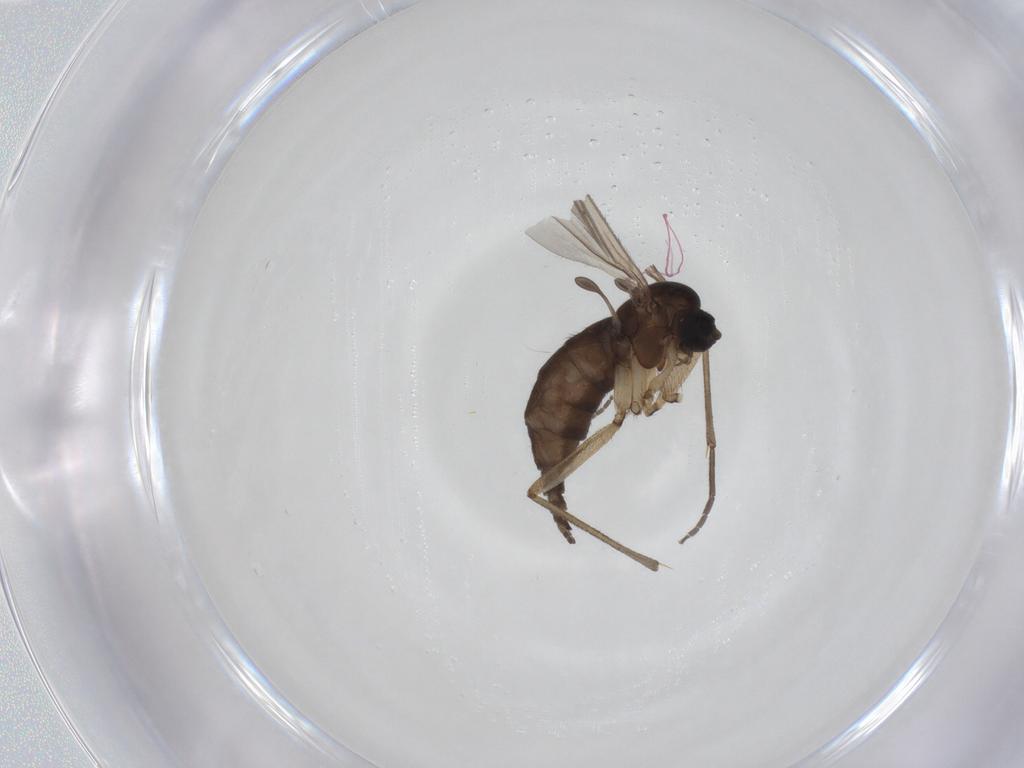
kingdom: Animalia
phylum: Arthropoda
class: Insecta
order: Diptera
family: Sciaridae
